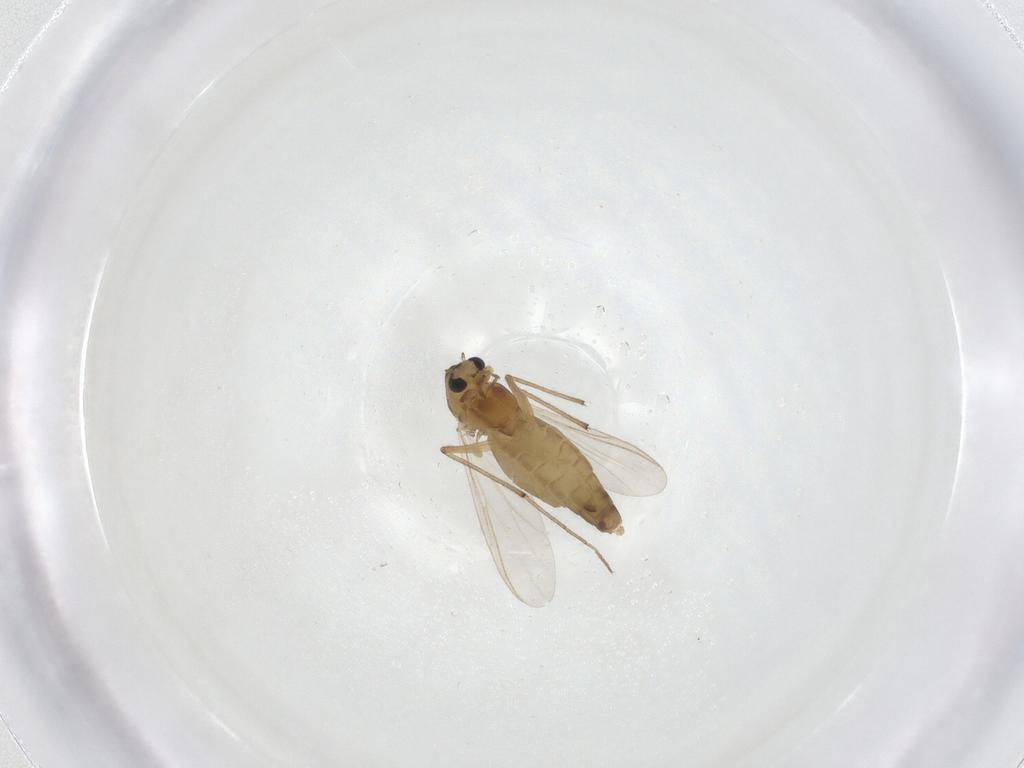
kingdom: Animalia
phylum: Arthropoda
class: Insecta
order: Diptera
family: Chironomidae
